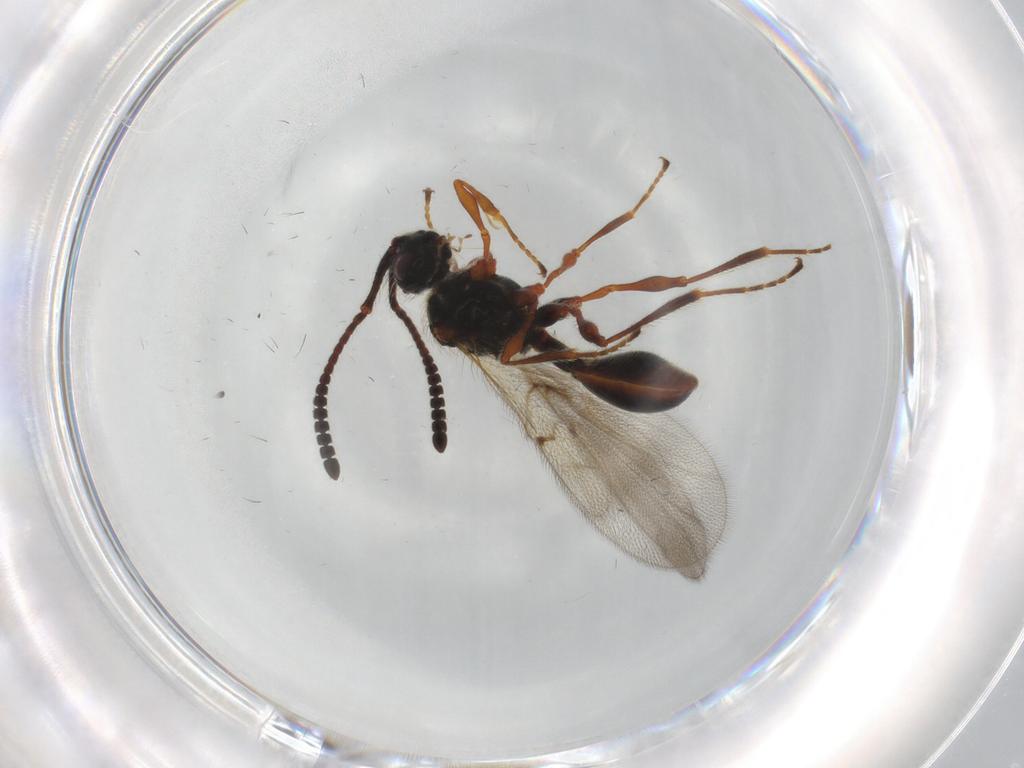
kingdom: Animalia
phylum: Arthropoda
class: Insecta
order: Hymenoptera
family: Diapriidae
